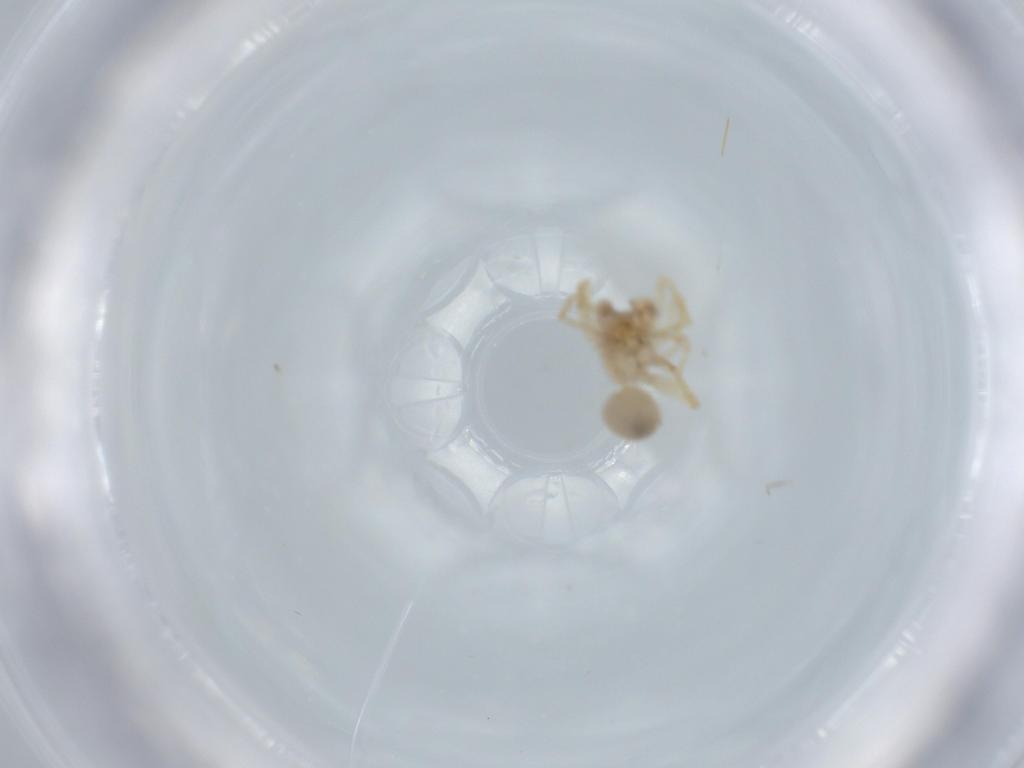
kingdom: Animalia
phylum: Arthropoda
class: Arachnida
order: Araneae
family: Oonopidae
